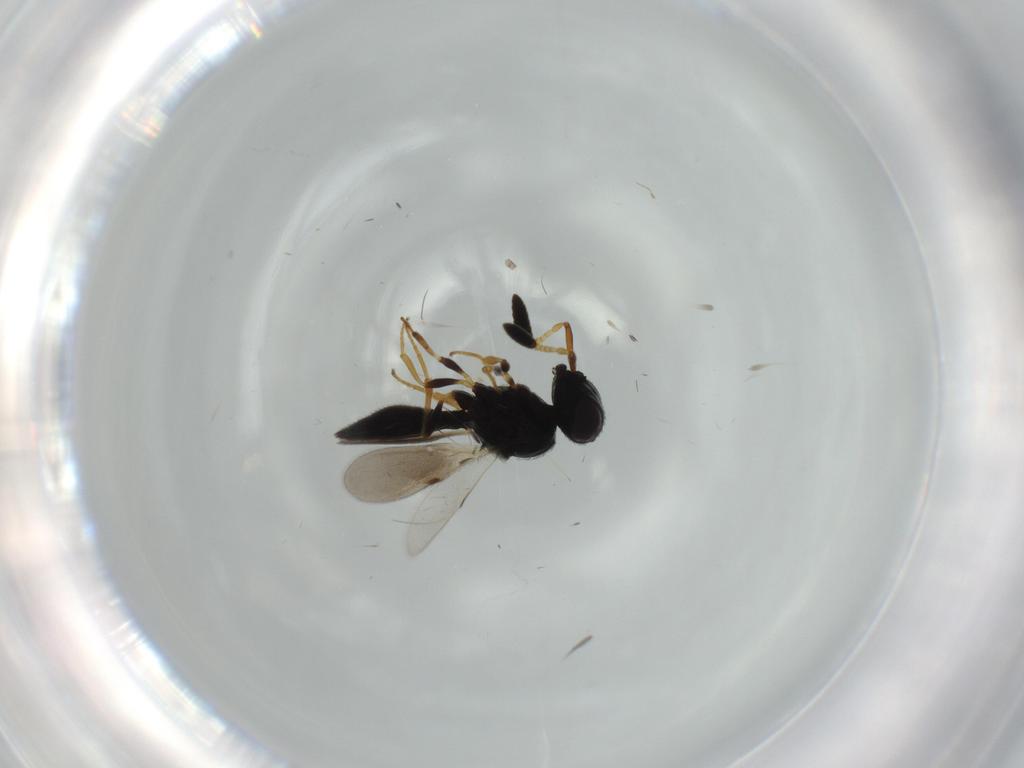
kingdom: Animalia
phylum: Arthropoda
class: Insecta
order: Hymenoptera
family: Scelionidae
